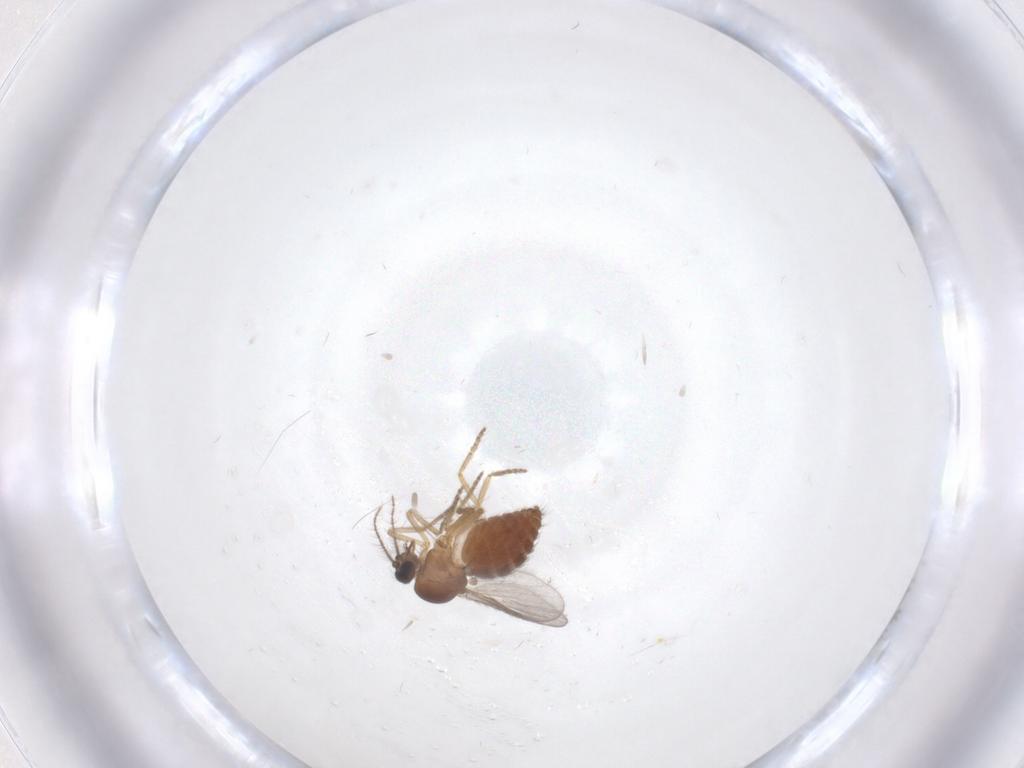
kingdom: Animalia
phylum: Arthropoda
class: Insecta
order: Diptera
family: Ceratopogonidae
